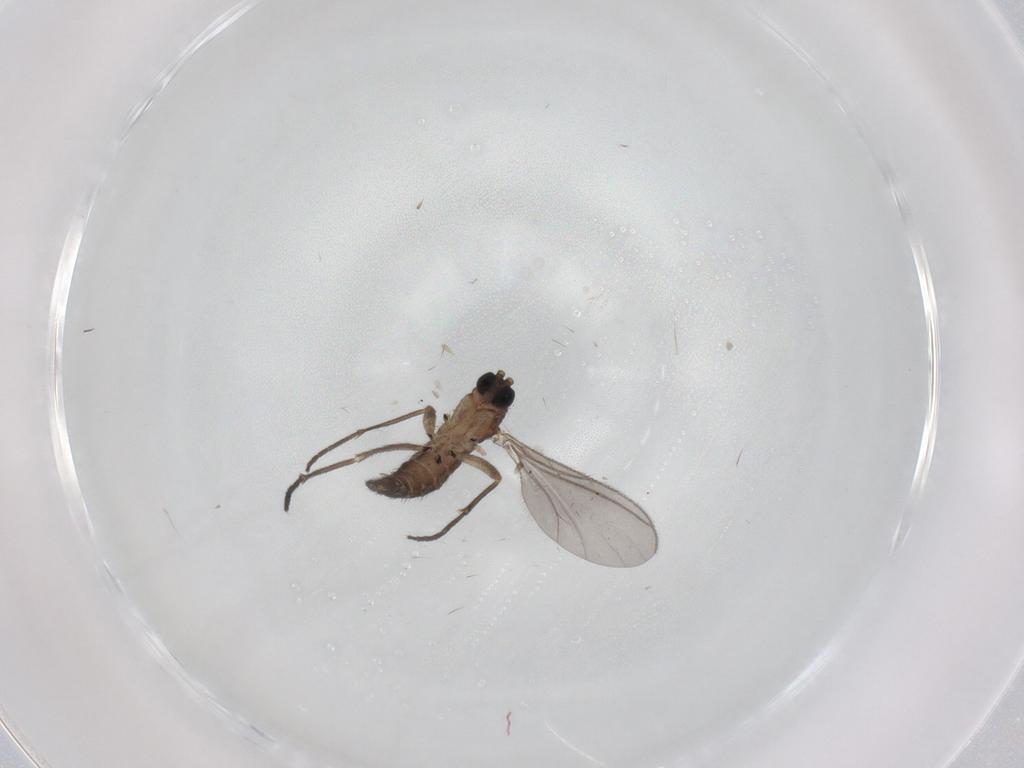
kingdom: Animalia
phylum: Arthropoda
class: Insecta
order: Diptera
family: Sciaridae
